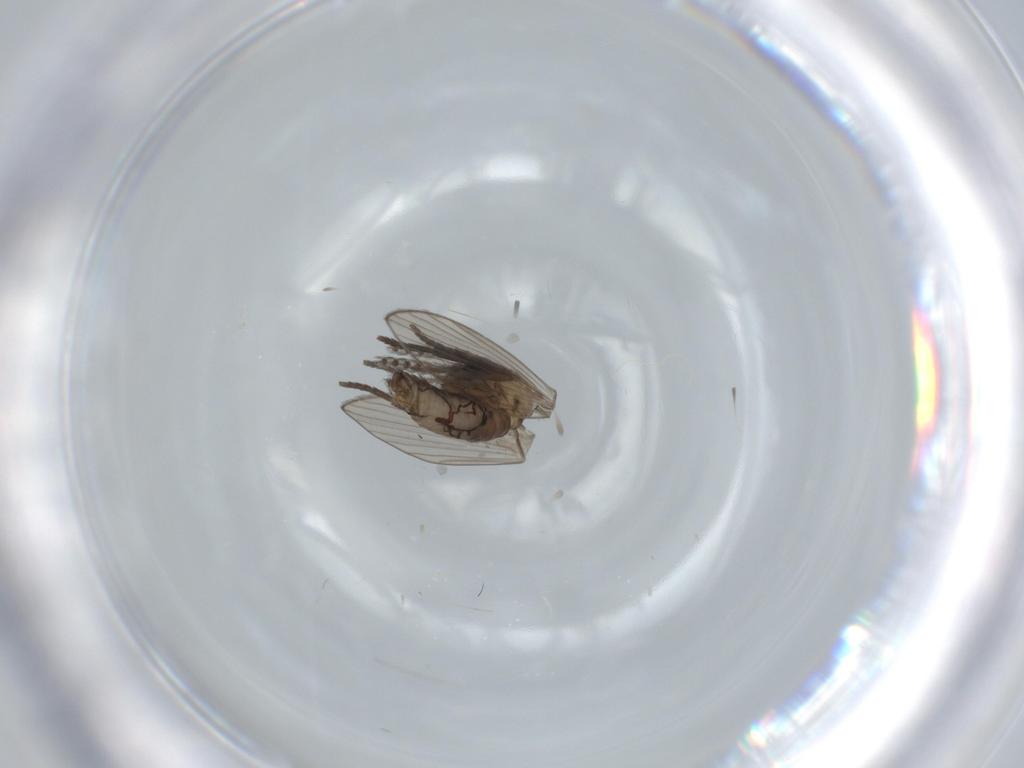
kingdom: Animalia
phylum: Arthropoda
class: Insecta
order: Diptera
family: Psychodidae
